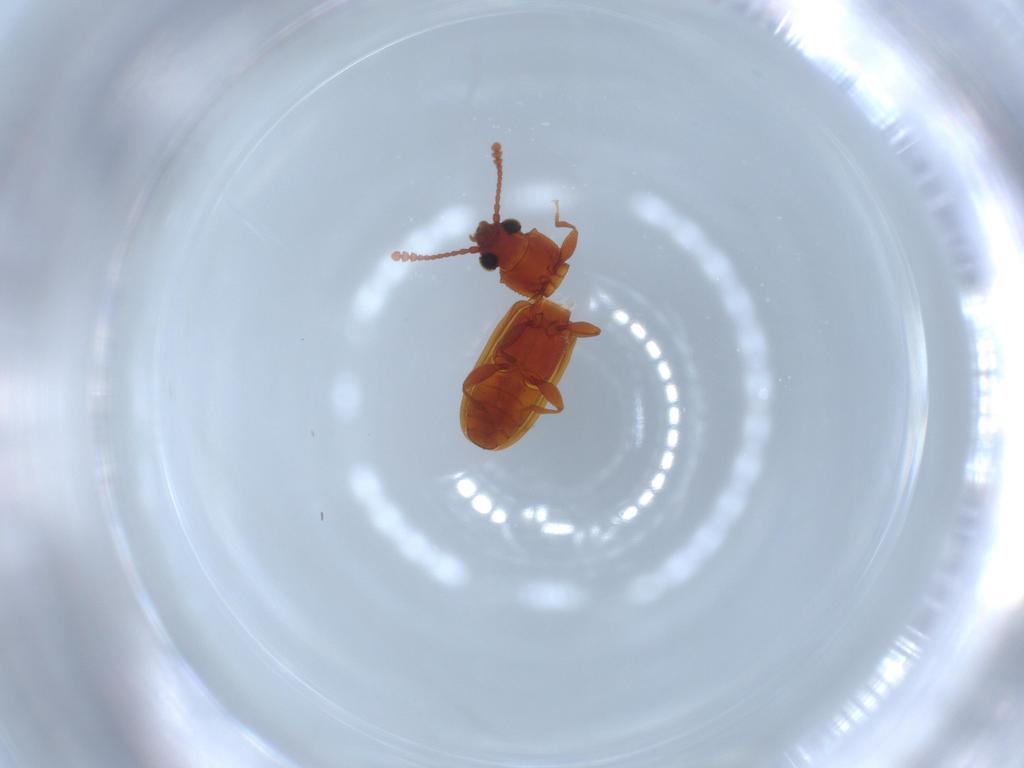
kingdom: Animalia
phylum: Arthropoda
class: Insecta
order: Coleoptera
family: Silvanidae
